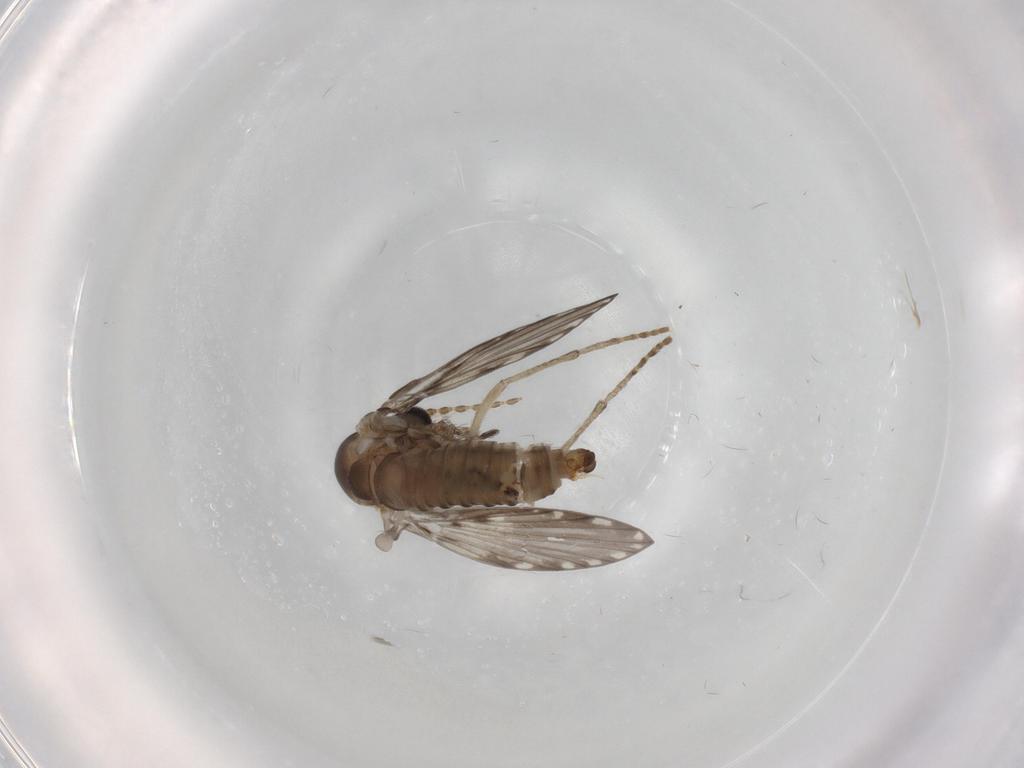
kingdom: Animalia
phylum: Arthropoda
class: Insecta
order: Diptera
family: Psychodidae
